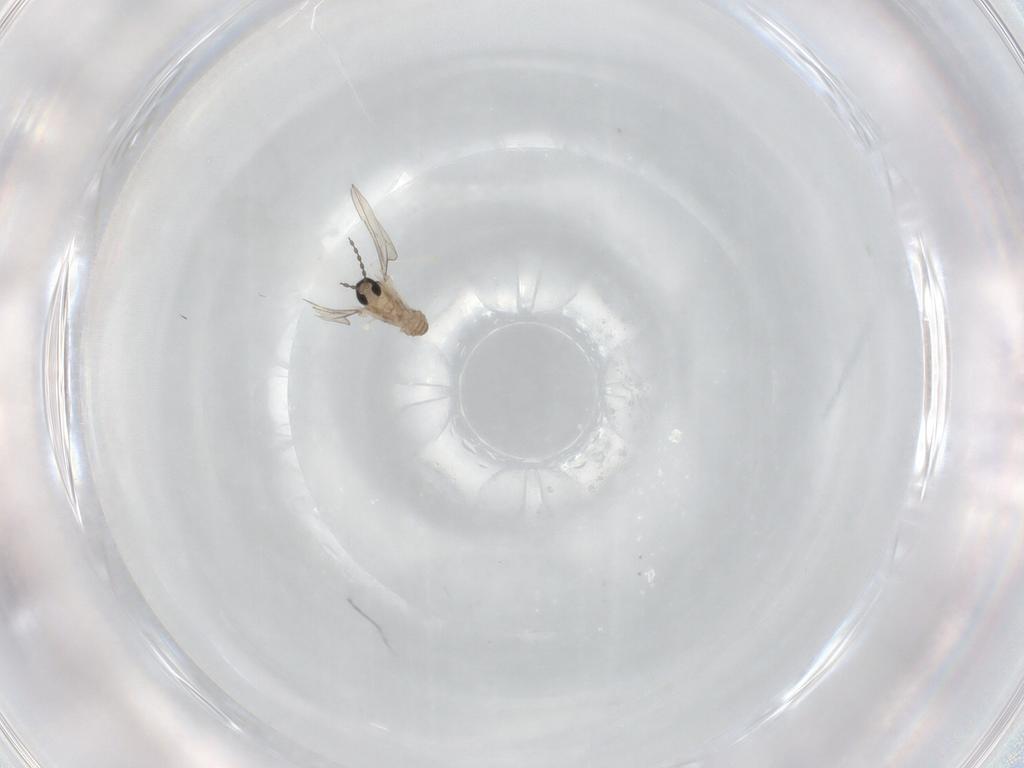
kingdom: Animalia
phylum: Arthropoda
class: Insecta
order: Diptera
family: Cecidomyiidae
